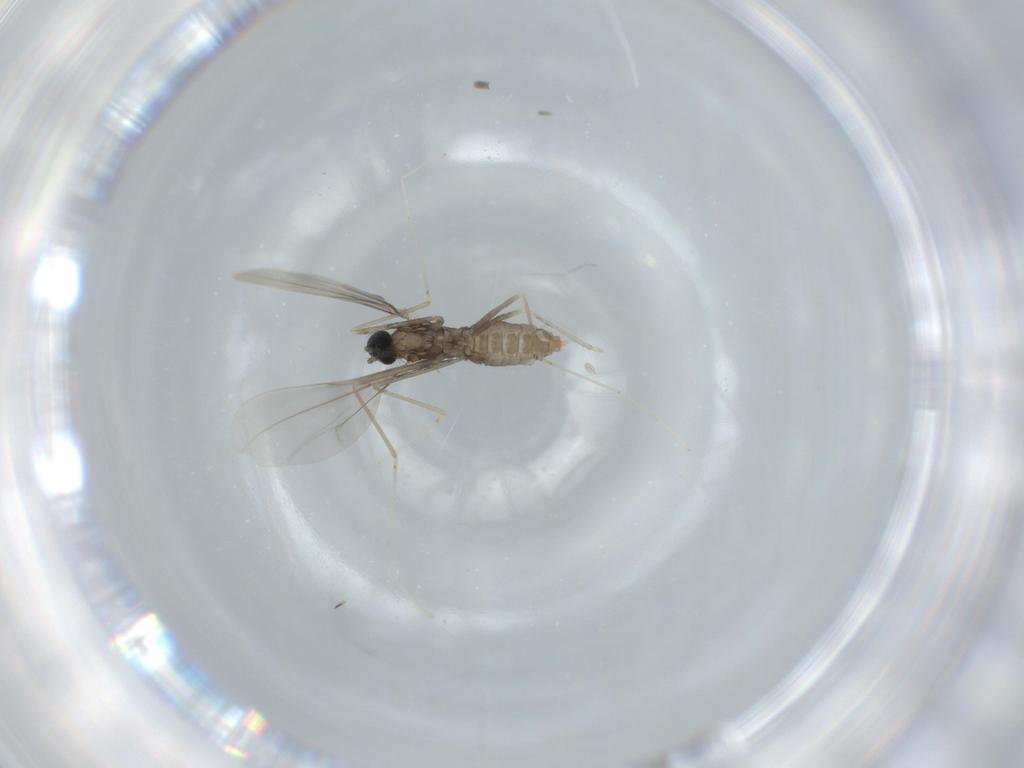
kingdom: Animalia
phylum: Arthropoda
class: Insecta
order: Diptera
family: Cecidomyiidae
